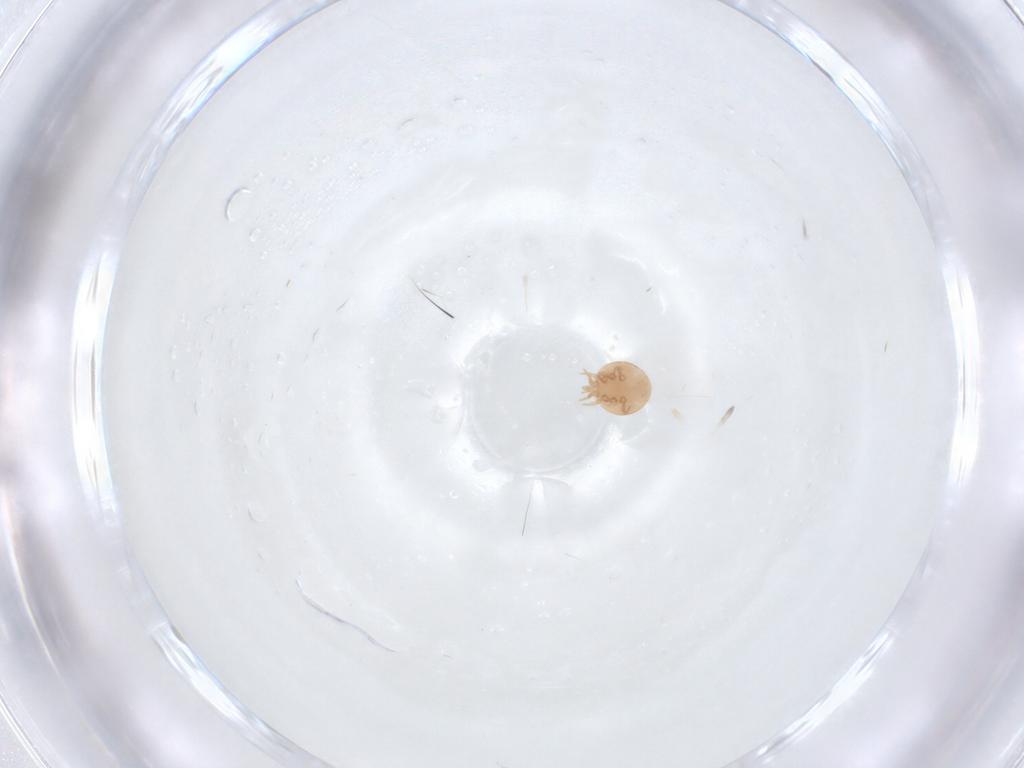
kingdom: Animalia
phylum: Arthropoda
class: Arachnida
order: Mesostigmata
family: Trematuridae
